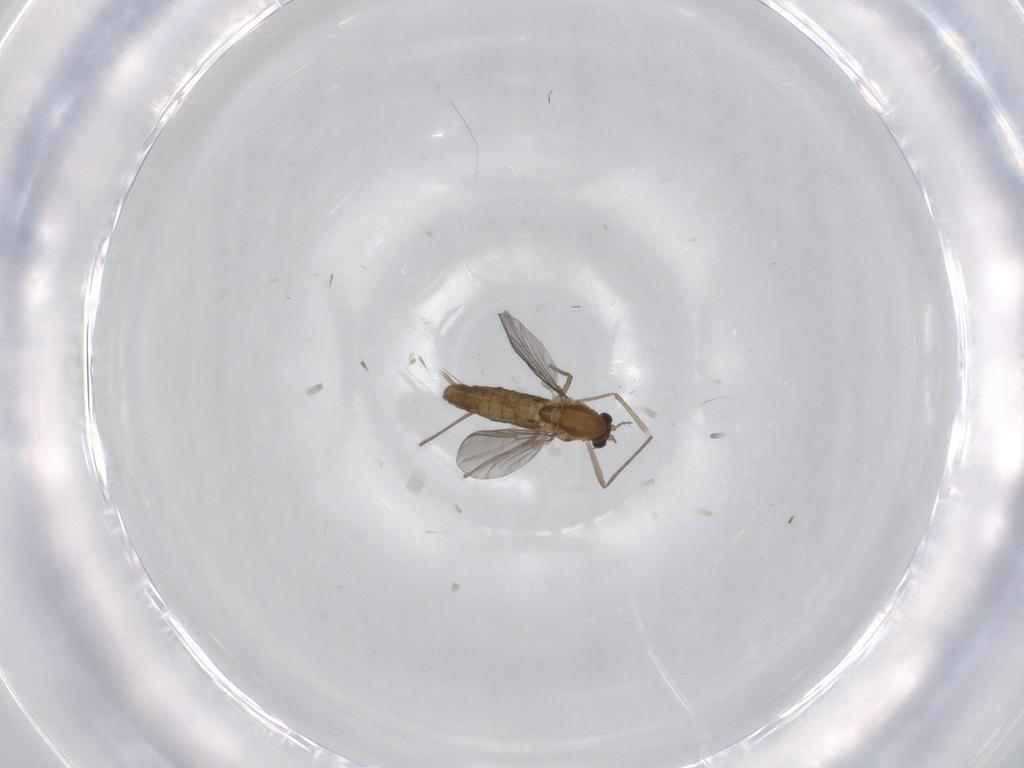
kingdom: Animalia
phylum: Arthropoda
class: Insecta
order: Diptera
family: Chironomidae
